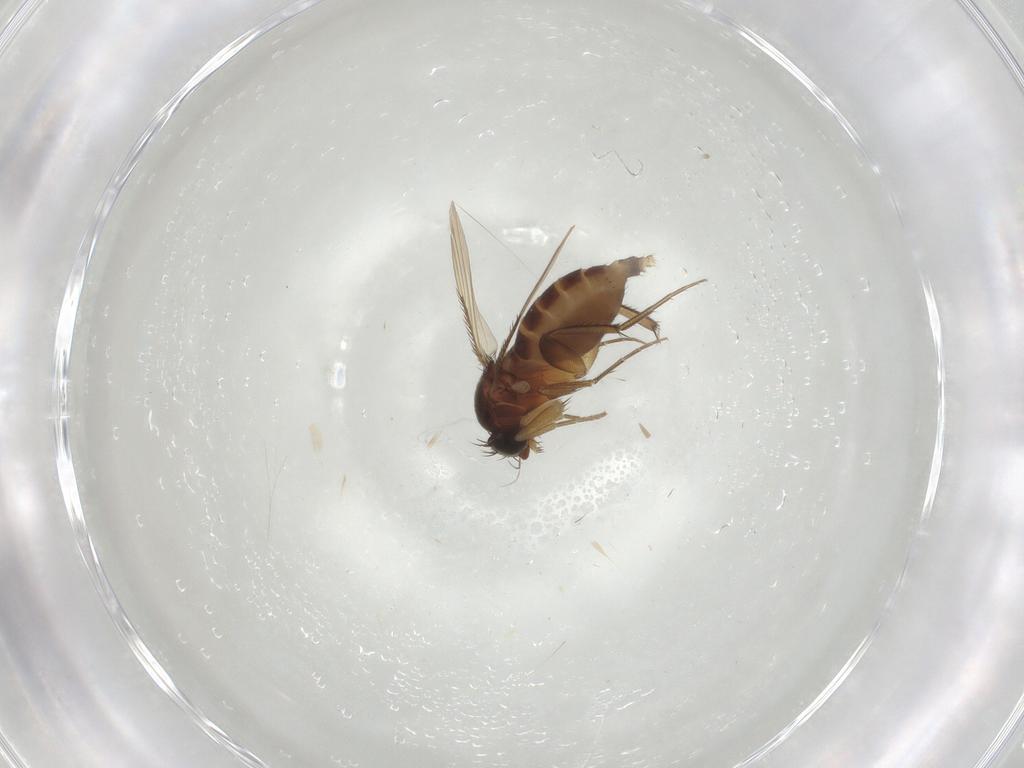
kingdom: Animalia
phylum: Arthropoda
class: Insecta
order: Diptera
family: Phoridae
